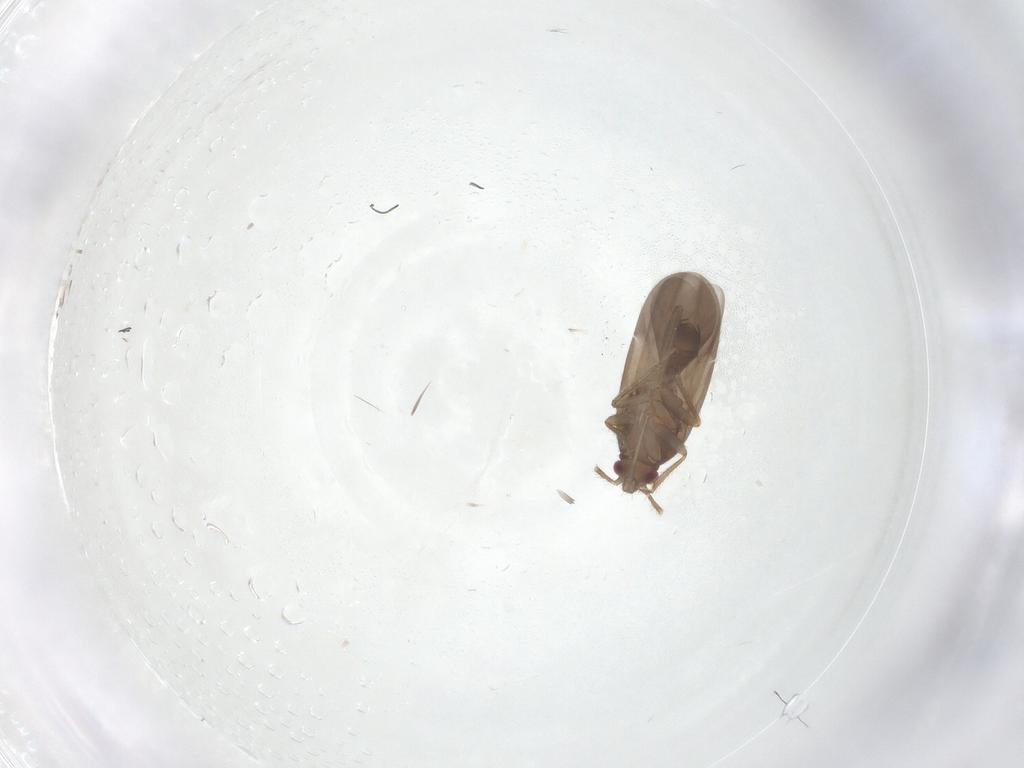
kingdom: Animalia
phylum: Arthropoda
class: Insecta
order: Hemiptera
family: Ceratocombidae
